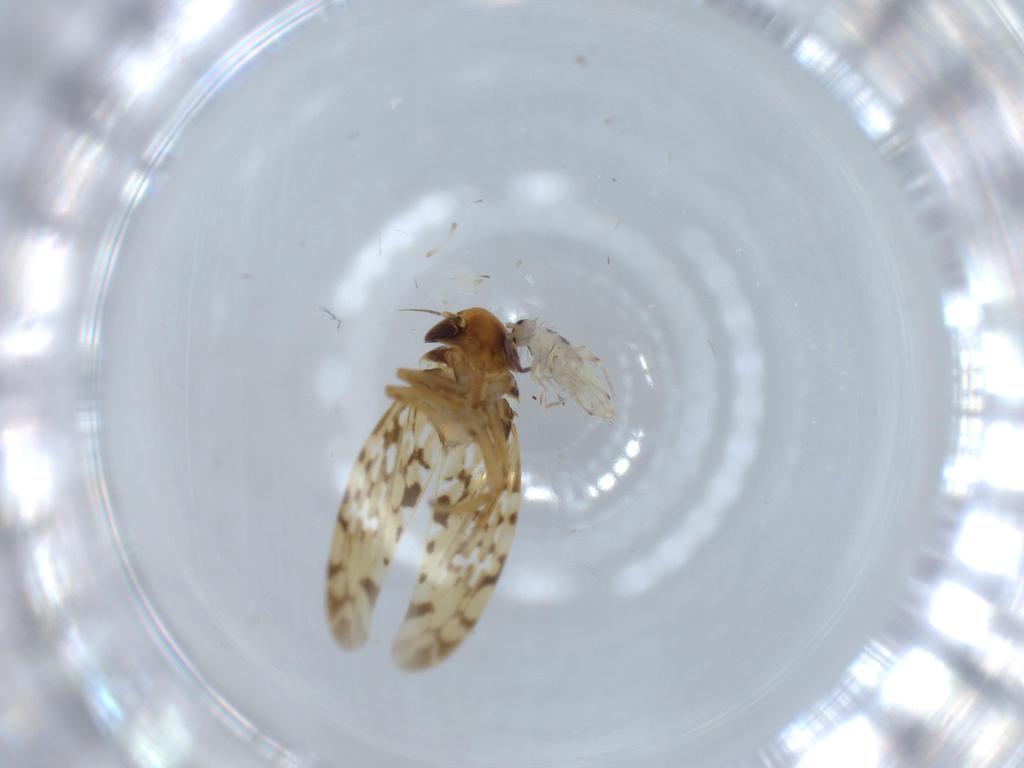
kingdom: Animalia
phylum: Arthropoda
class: Collembola
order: Entomobryomorpha
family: Entomobryidae
